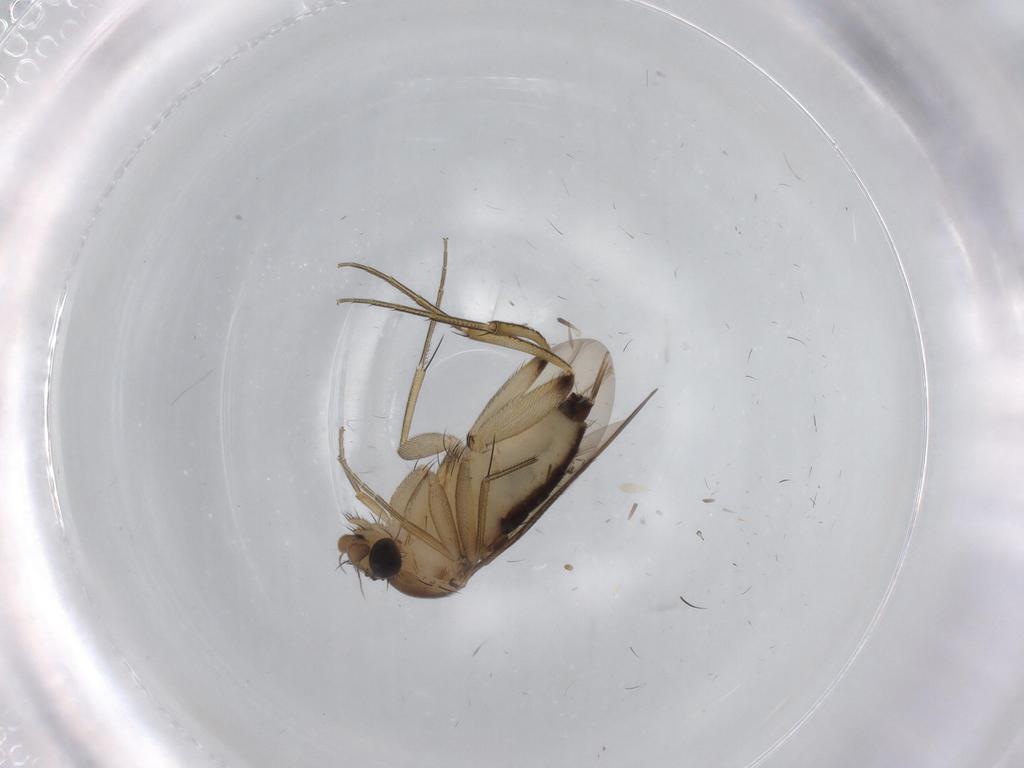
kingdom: Animalia
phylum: Arthropoda
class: Insecta
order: Diptera
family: Phoridae
